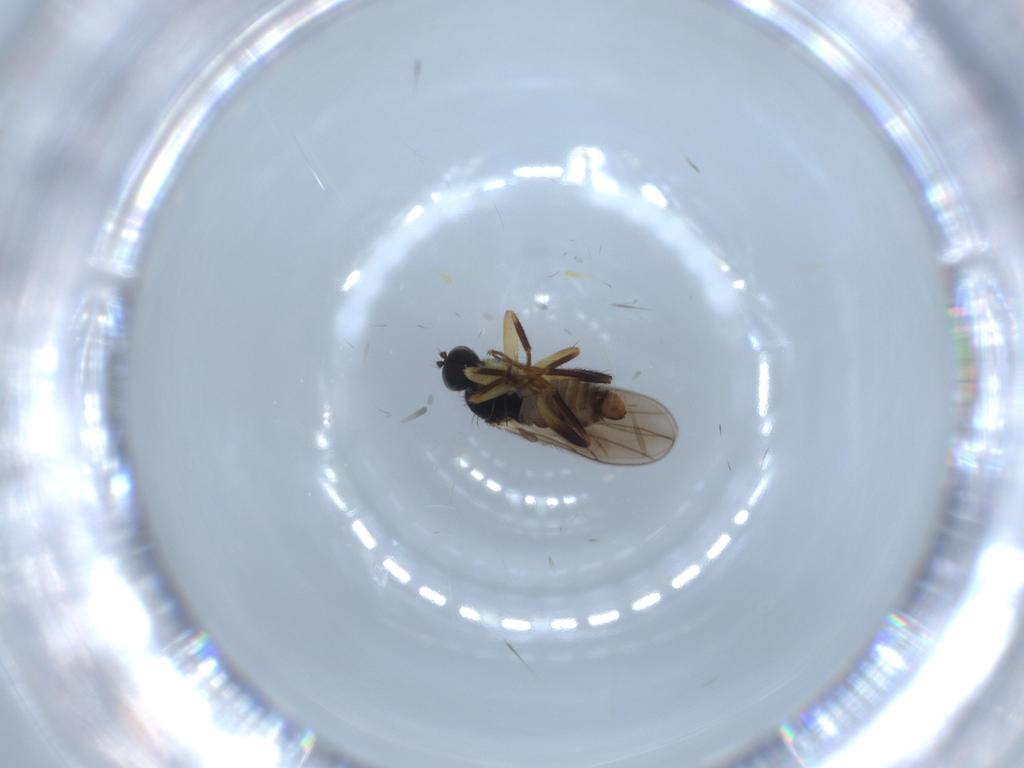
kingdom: Animalia
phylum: Arthropoda
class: Insecta
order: Diptera
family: Hybotidae
